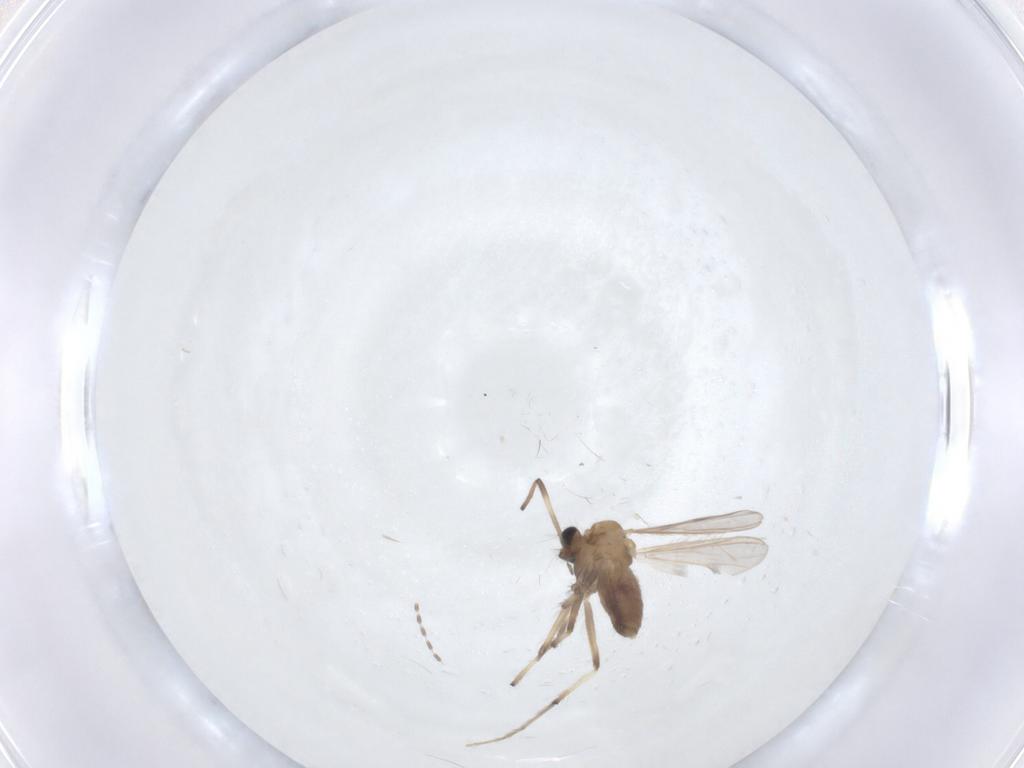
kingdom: Animalia
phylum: Arthropoda
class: Insecta
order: Diptera
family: Chironomidae
